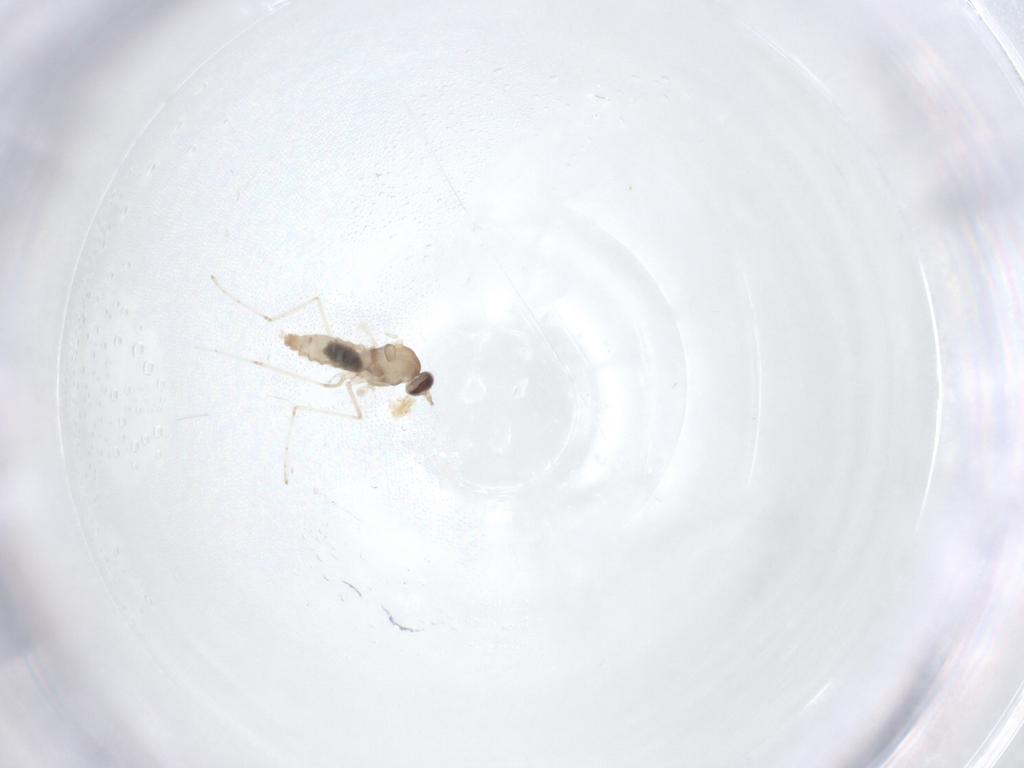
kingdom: Animalia
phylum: Arthropoda
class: Insecta
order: Diptera
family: Cecidomyiidae
